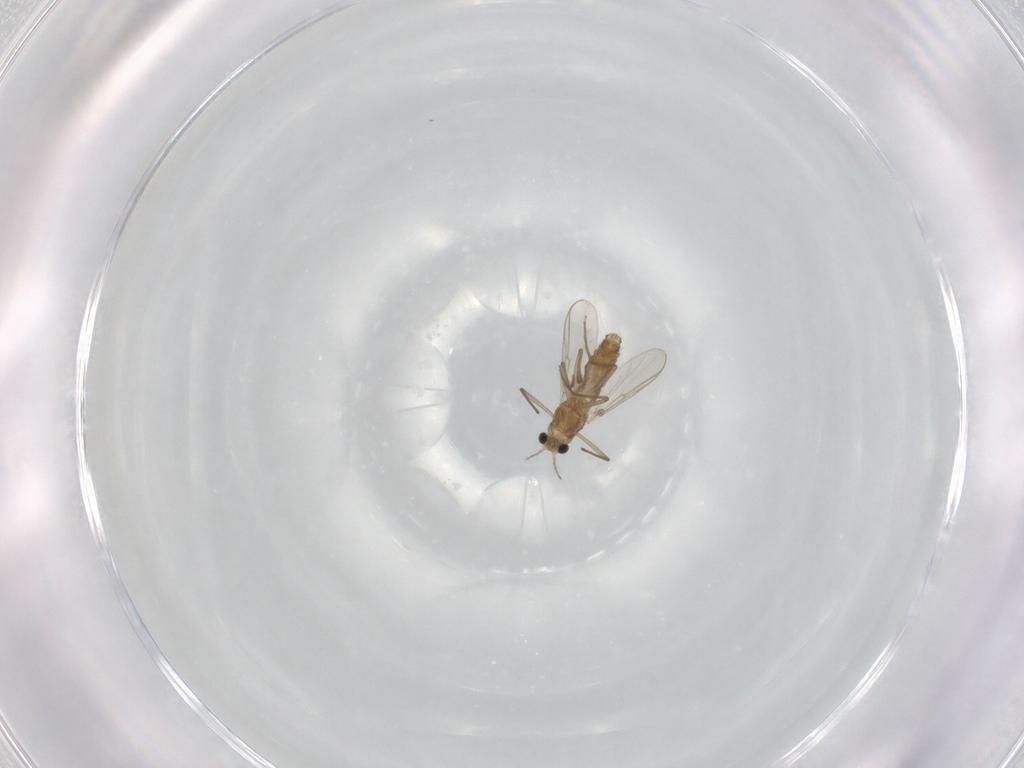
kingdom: Animalia
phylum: Arthropoda
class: Insecta
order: Diptera
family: Chironomidae
